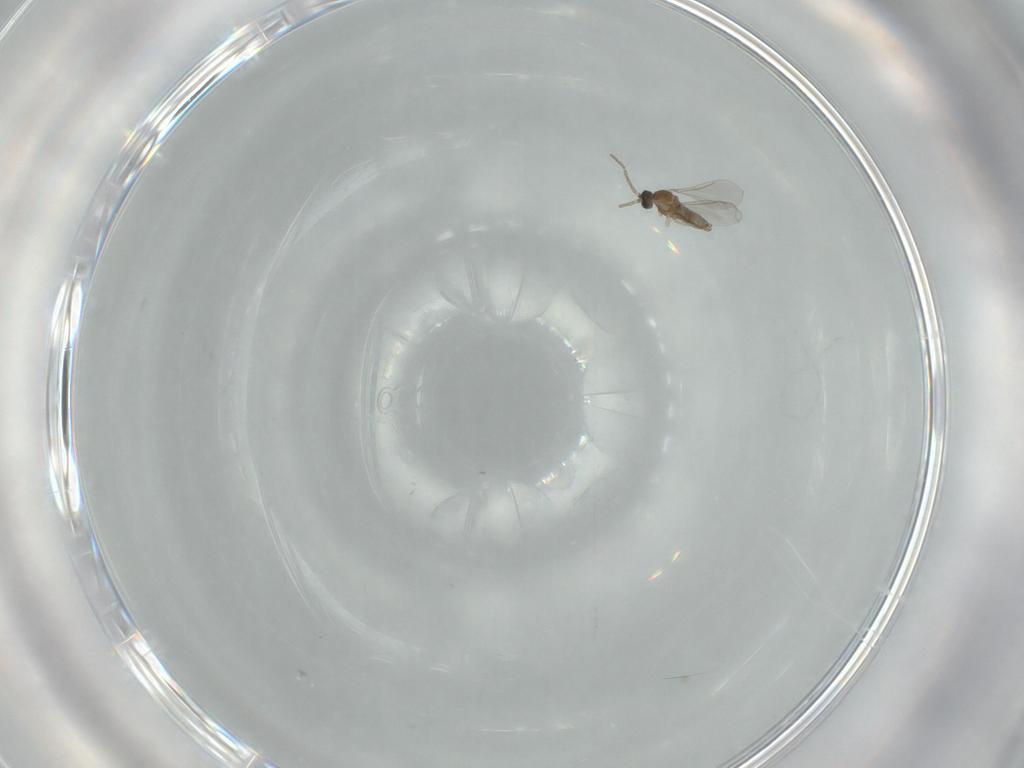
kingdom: Animalia
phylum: Arthropoda
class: Insecta
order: Diptera
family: Cecidomyiidae
